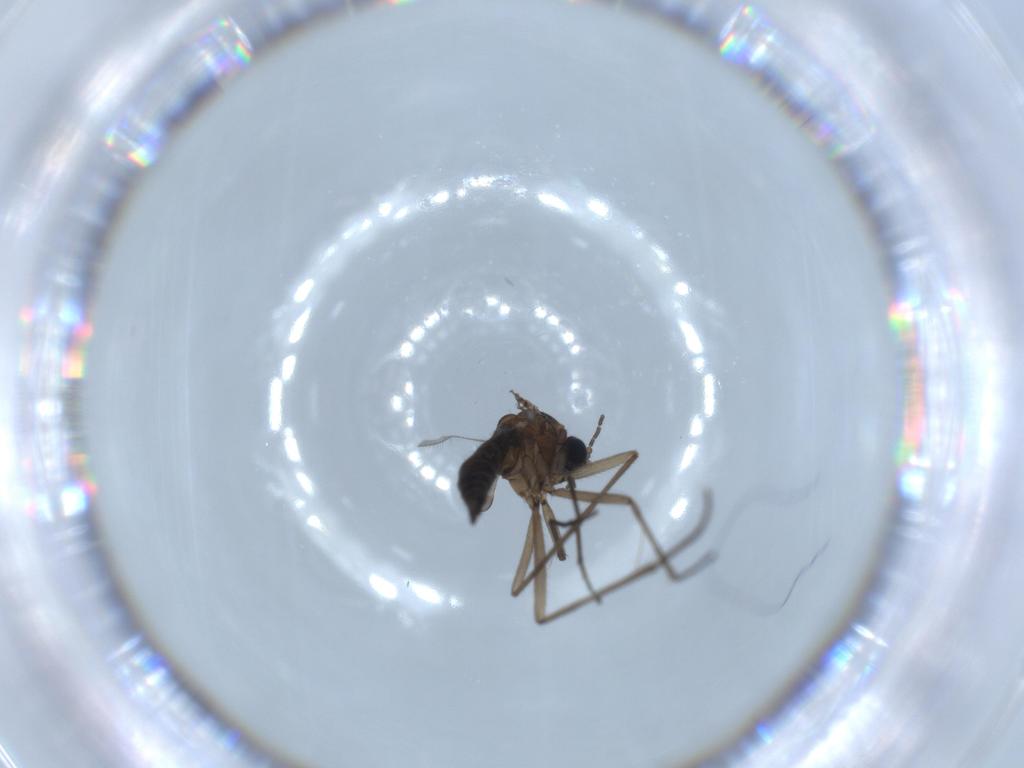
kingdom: Animalia
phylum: Arthropoda
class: Insecta
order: Diptera
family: Sciaridae
